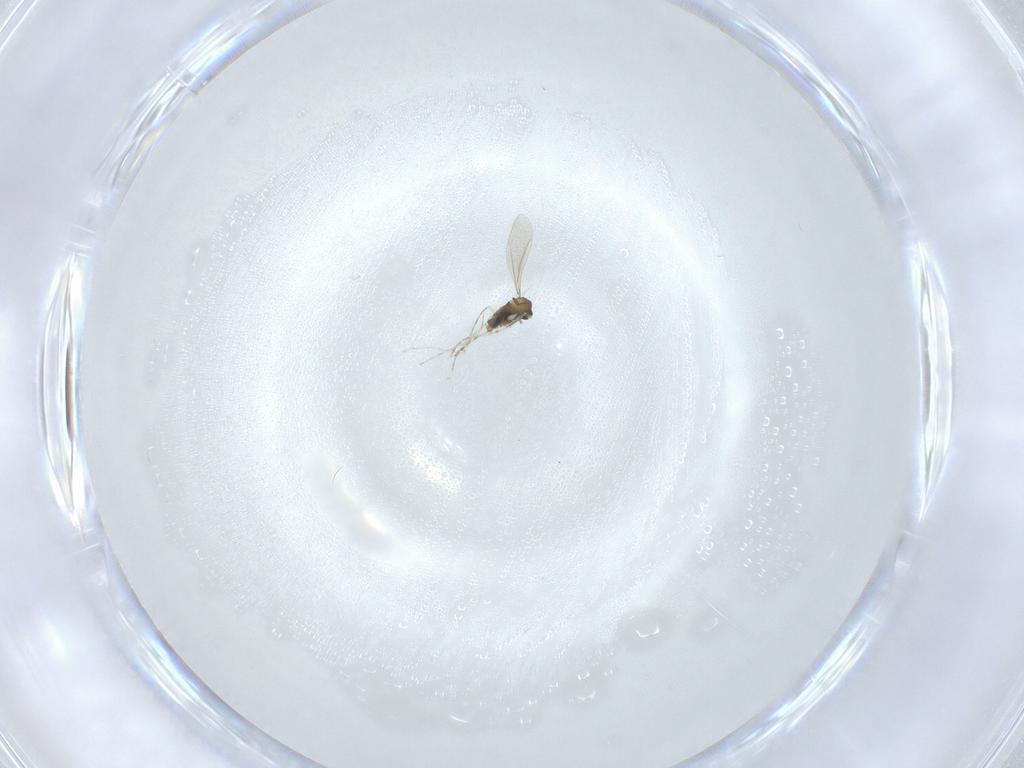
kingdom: Animalia
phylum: Arthropoda
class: Insecta
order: Diptera
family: Cecidomyiidae
